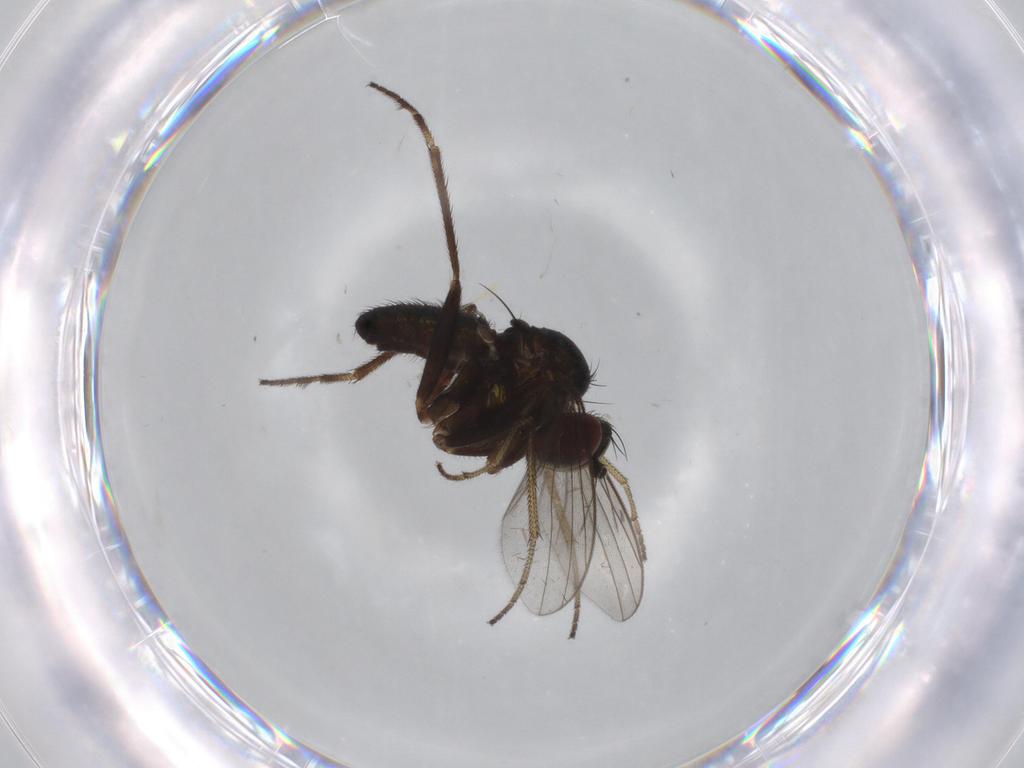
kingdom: Animalia
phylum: Arthropoda
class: Insecta
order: Diptera
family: Dolichopodidae
